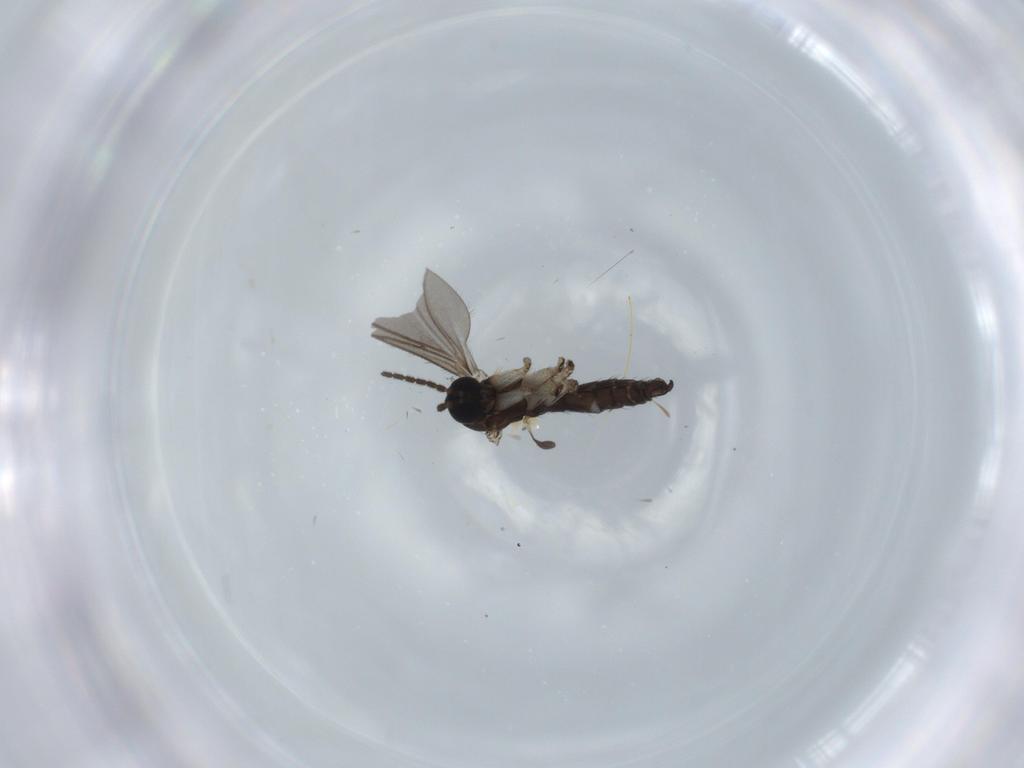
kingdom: Animalia
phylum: Arthropoda
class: Insecta
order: Diptera
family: Sciaridae
